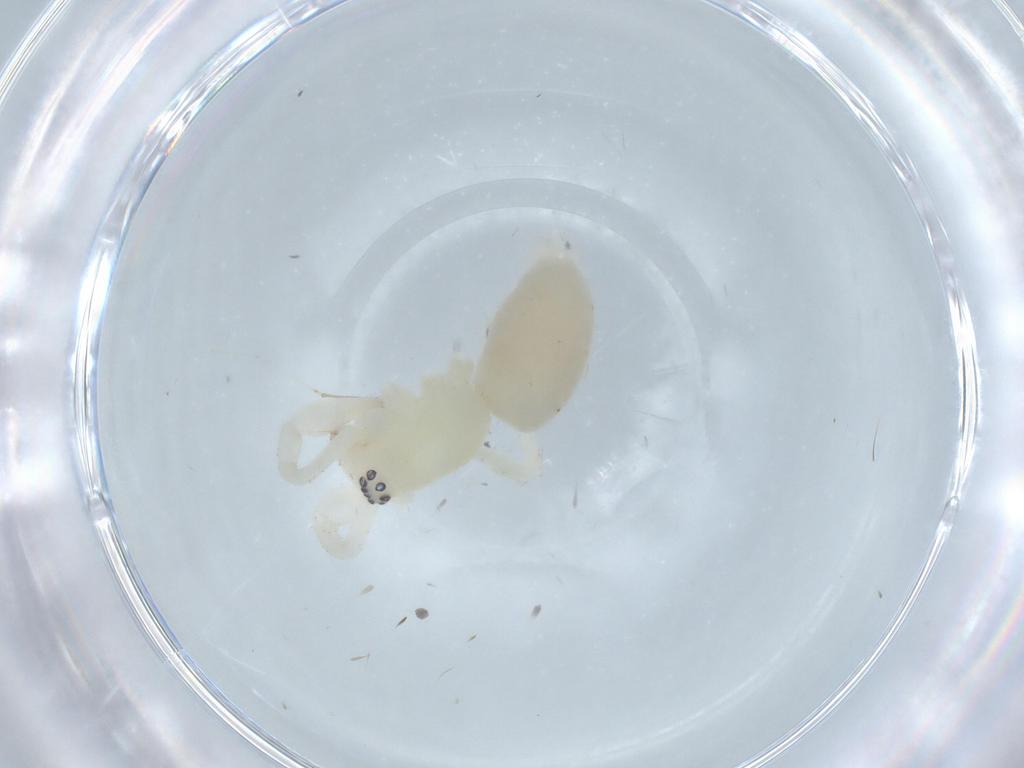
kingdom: Animalia
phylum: Arthropoda
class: Arachnida
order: Araneae
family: Anyphaenidae
